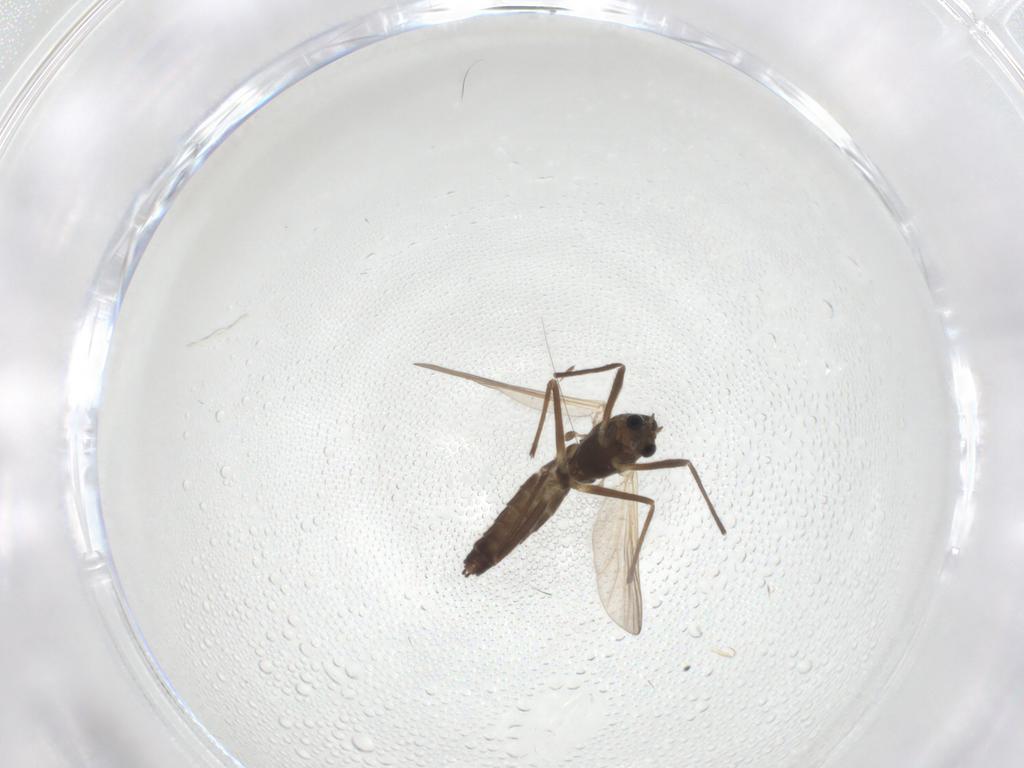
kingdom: Animalia
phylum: Arthropoda
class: Insecta
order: Diptera
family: Chironomidae
